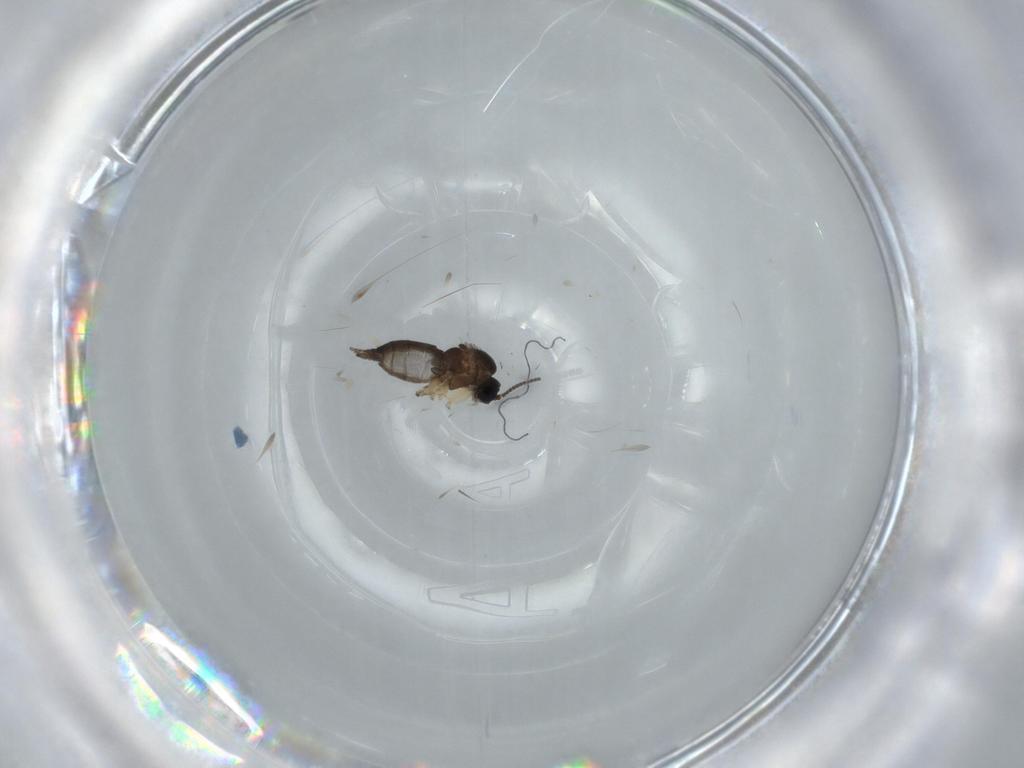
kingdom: Animalia
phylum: Arthropoda
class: Insecta
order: Diptera
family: Sciaridae
